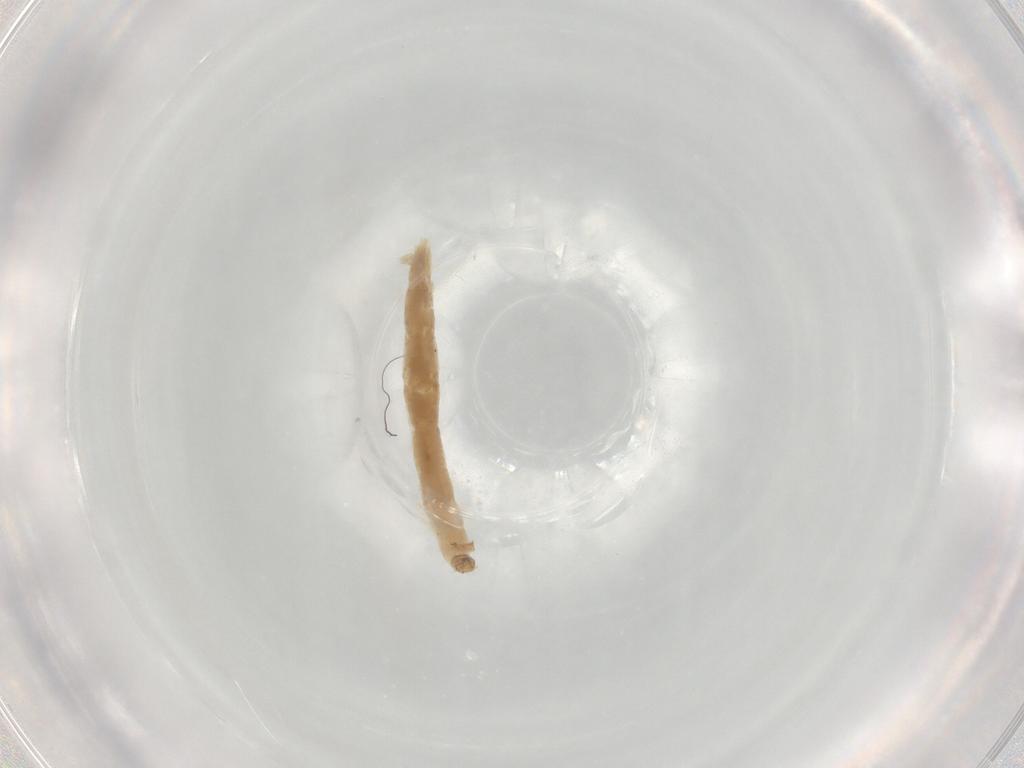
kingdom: Animalia
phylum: Arthropoda
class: Insecta
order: Diptera
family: Chironomidae
